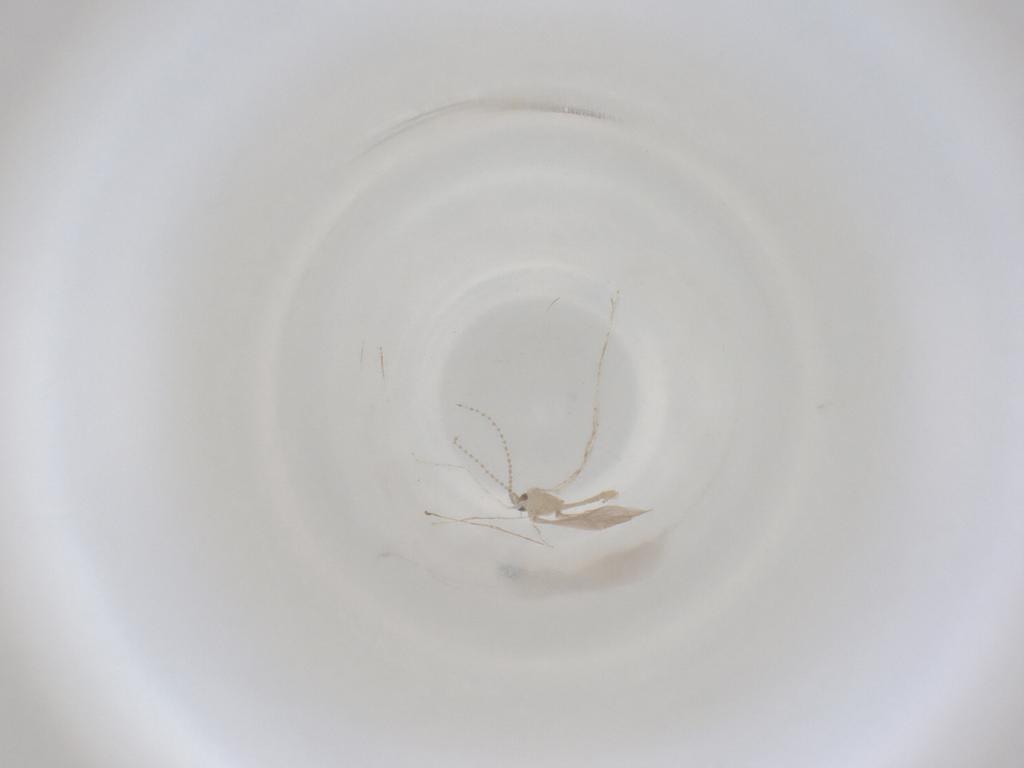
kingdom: Animalia
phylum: Arthropoda
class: Insecta
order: Diptera
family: Cecidomyiidae
